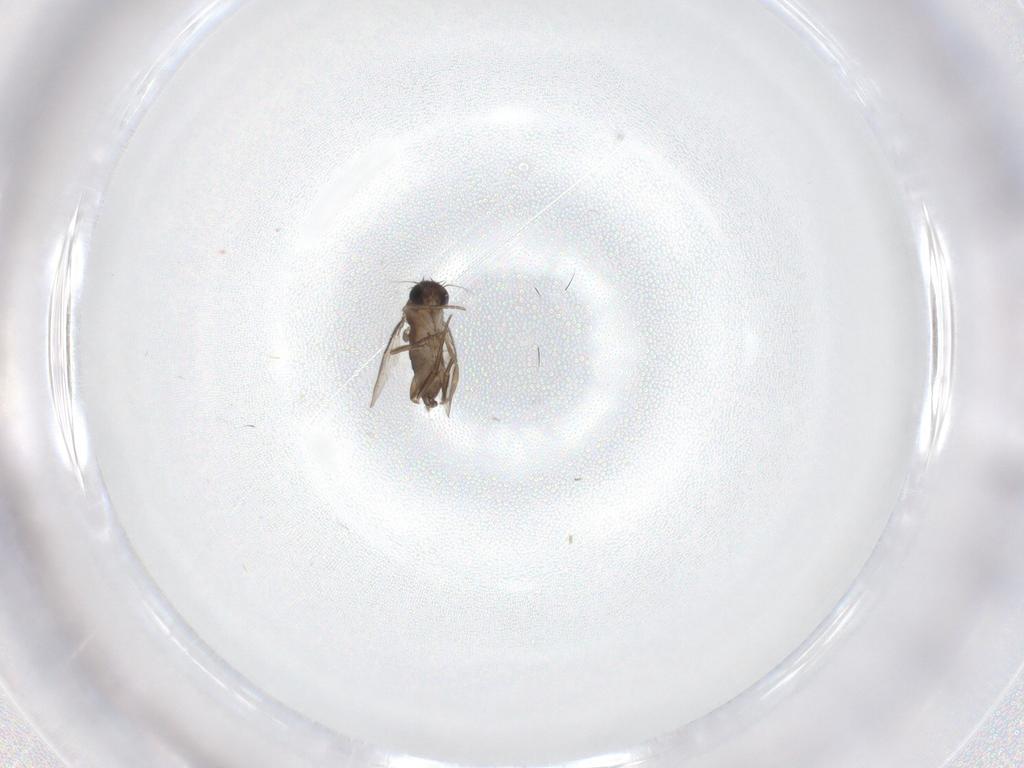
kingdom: Animalia
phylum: Arthropoda
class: Insecta
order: Diptera
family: Phoridae
